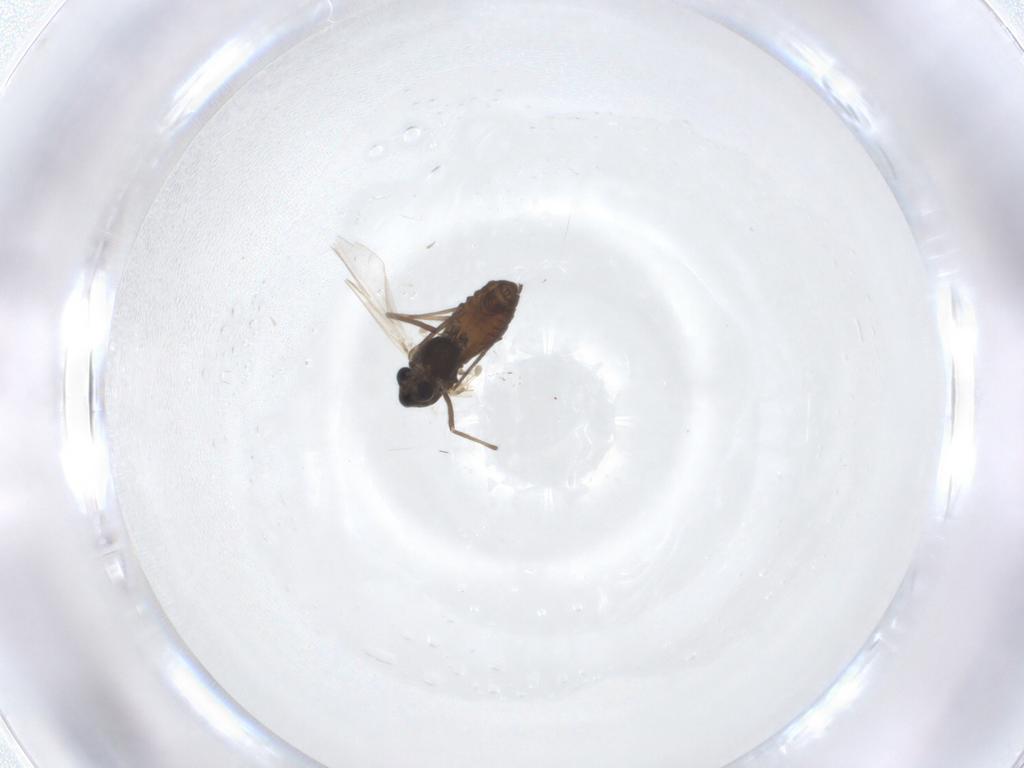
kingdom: Animalia
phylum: Arthropoda
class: Insecta
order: Diptera
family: Chironomidae
